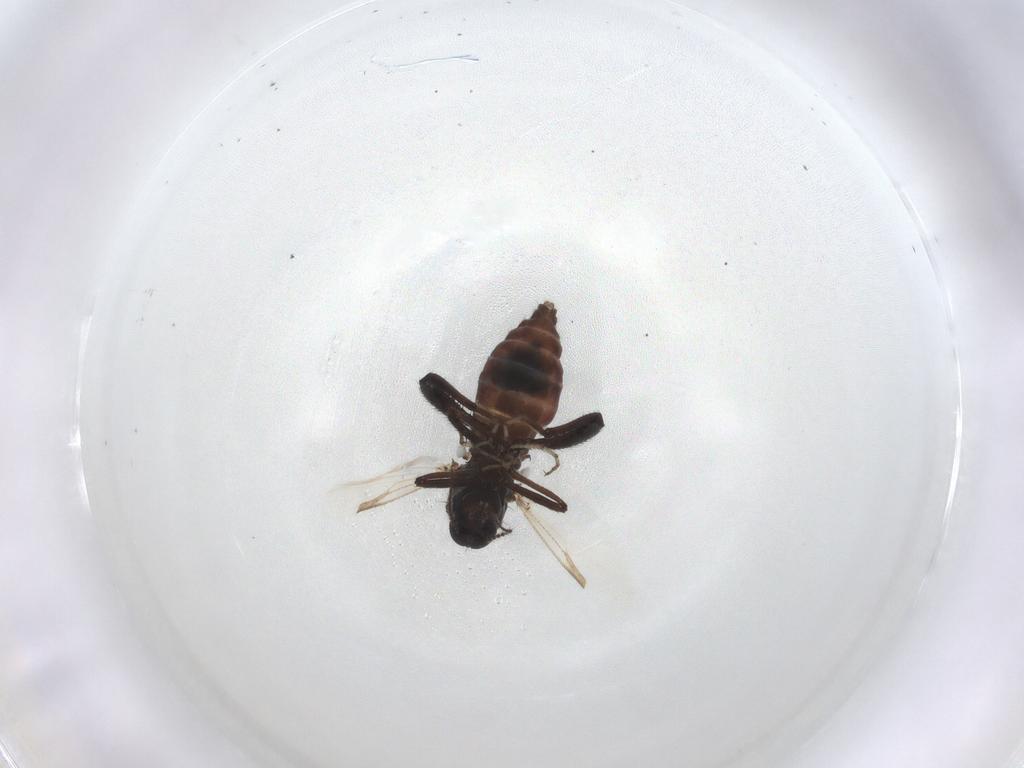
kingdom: Animalia
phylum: Arthropoda
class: Insecta
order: Diptera
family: Ceratopogonidae
